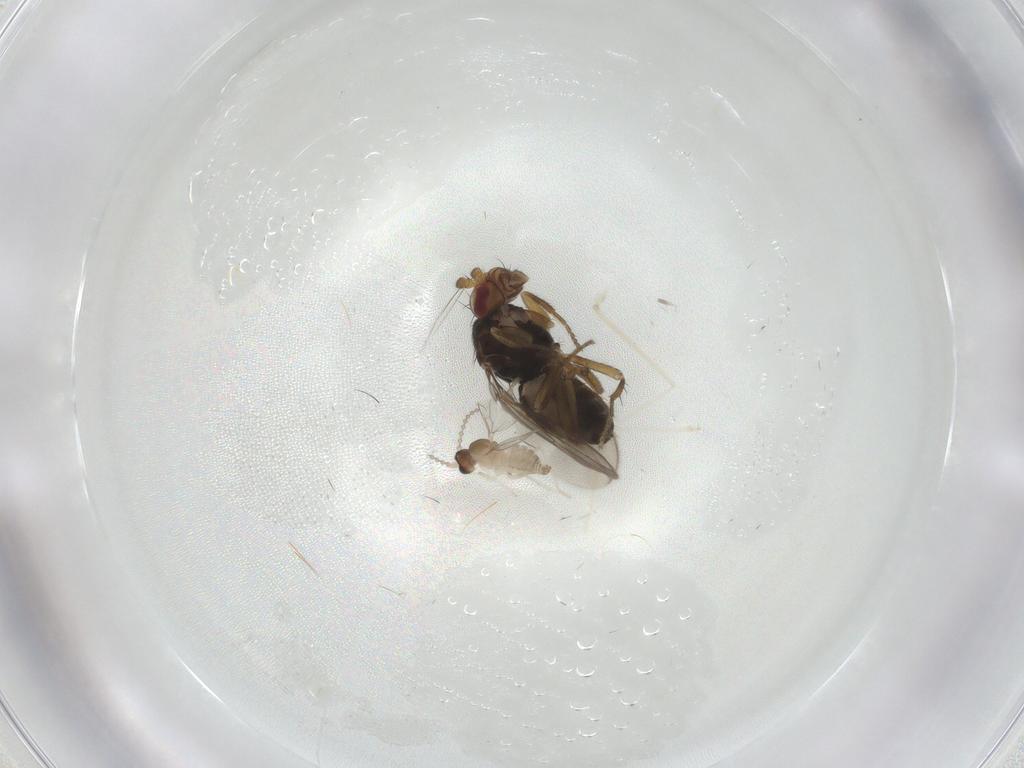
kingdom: Animalia
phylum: Arthropoda
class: Insecta
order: Diptera
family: Sphaeroceridae
